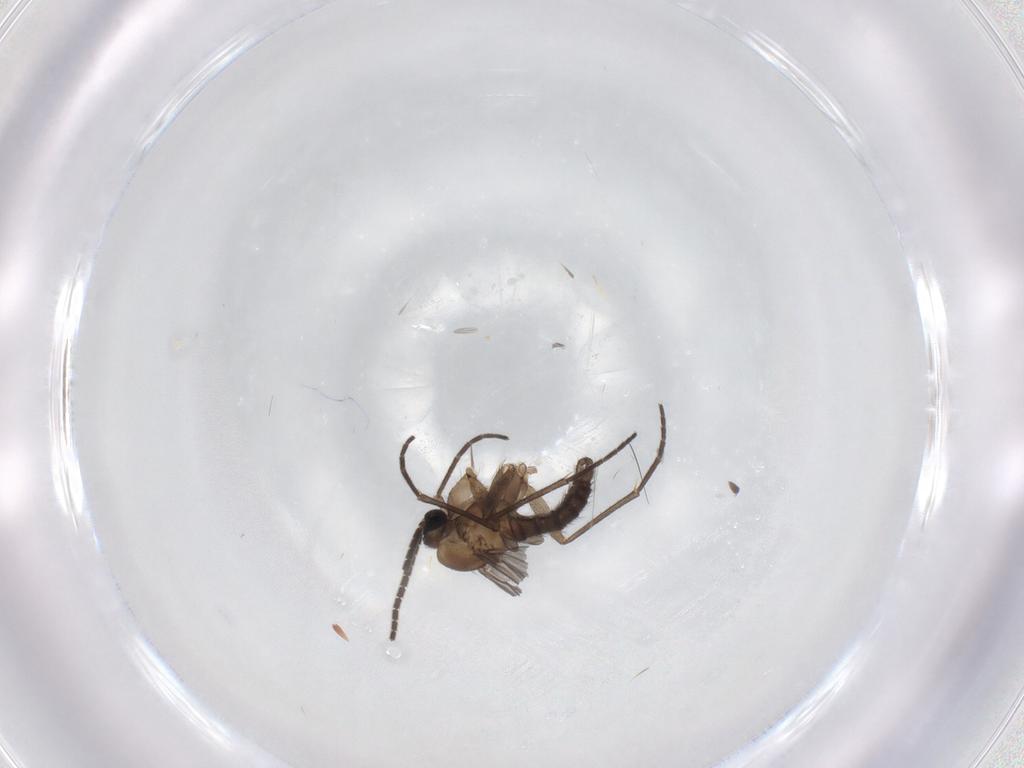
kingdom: Animalia
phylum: Arthropoda
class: Insecta
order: Diptera
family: Sciaridae
